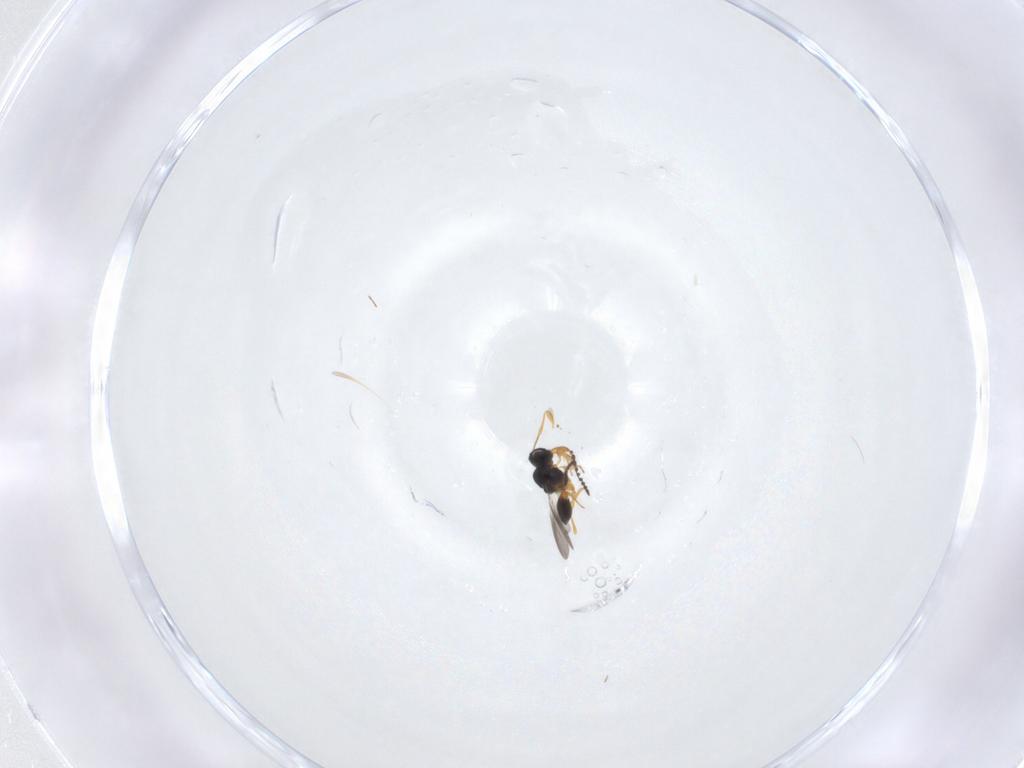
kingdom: Animalia
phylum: Arthropoda
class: Insecta
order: Hymenoptera
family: Platygastridae
